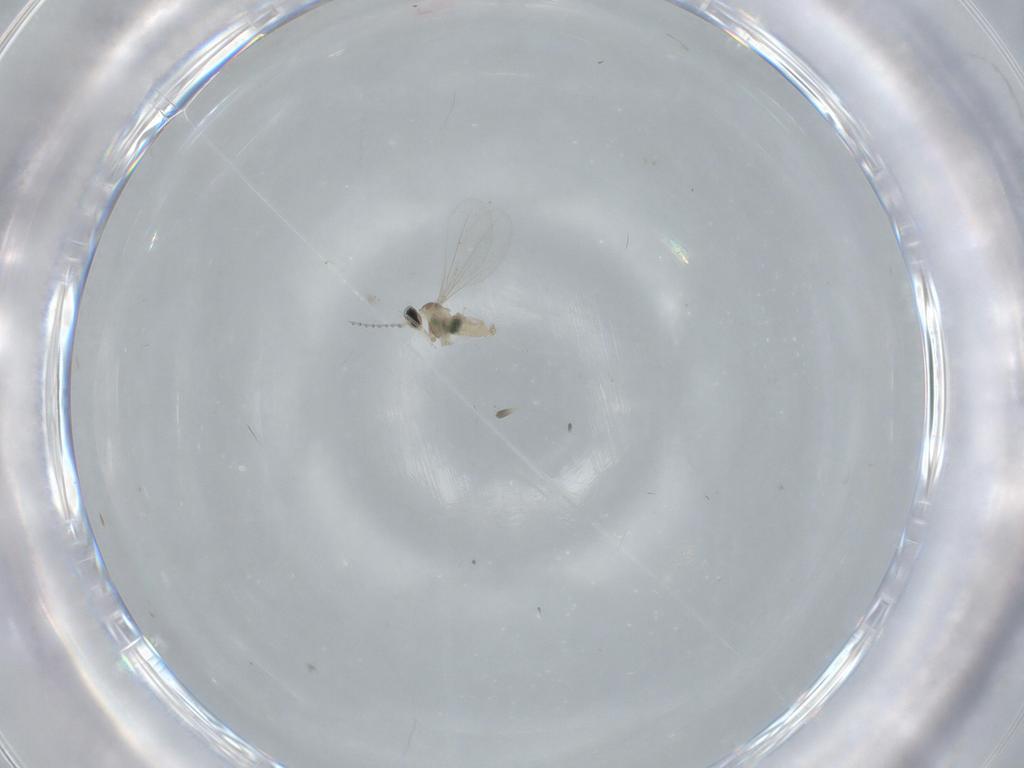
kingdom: Animalia
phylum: Arthropoda
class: Insecta
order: Diptera
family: Cecidomyiidae
